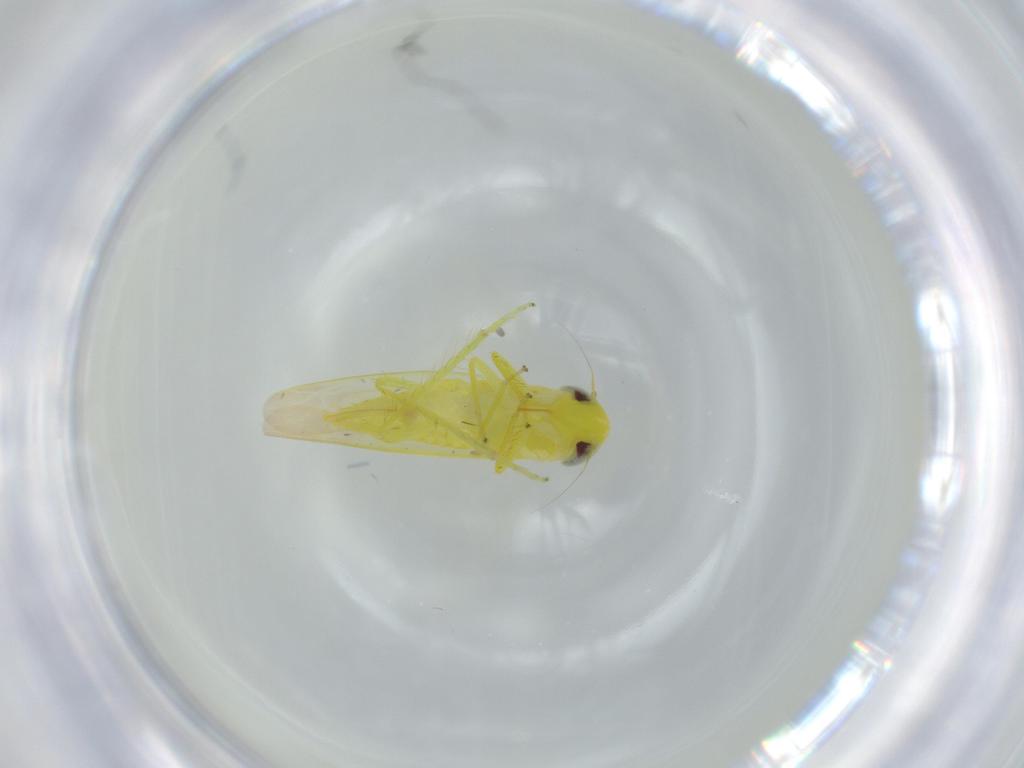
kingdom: Animalia
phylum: Arthropoda
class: Insecta
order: Hemiptera
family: Cicadellidae
